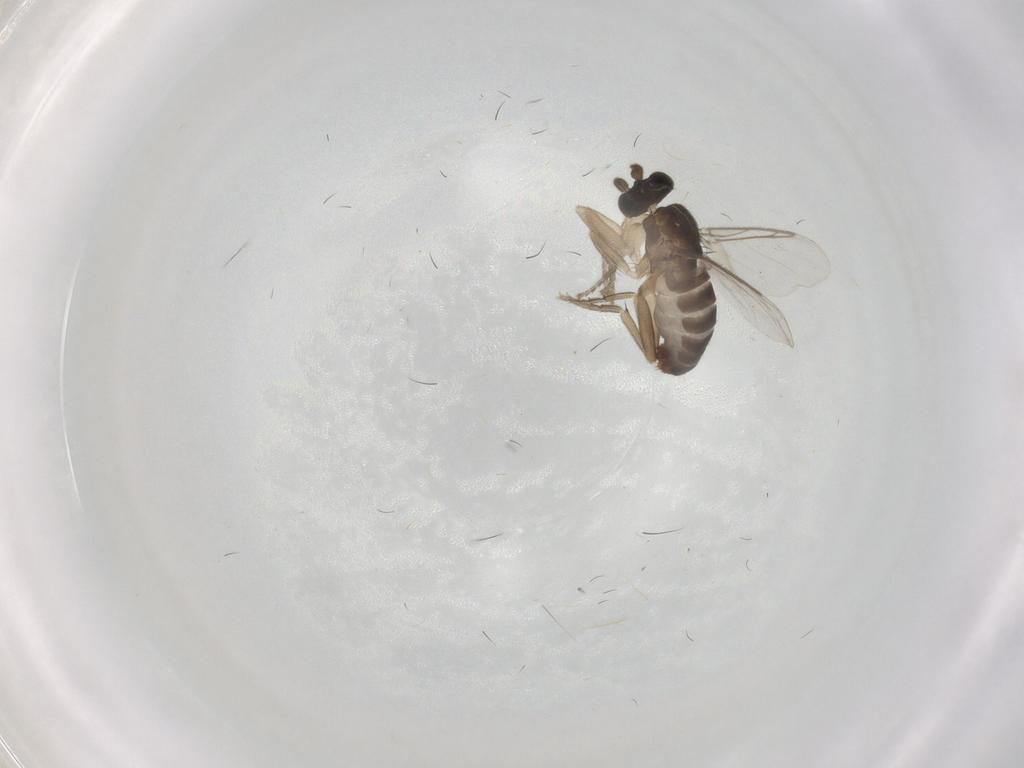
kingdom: Animalia
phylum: Arthropoda
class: Insecta
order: Diptera
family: Phoridae
